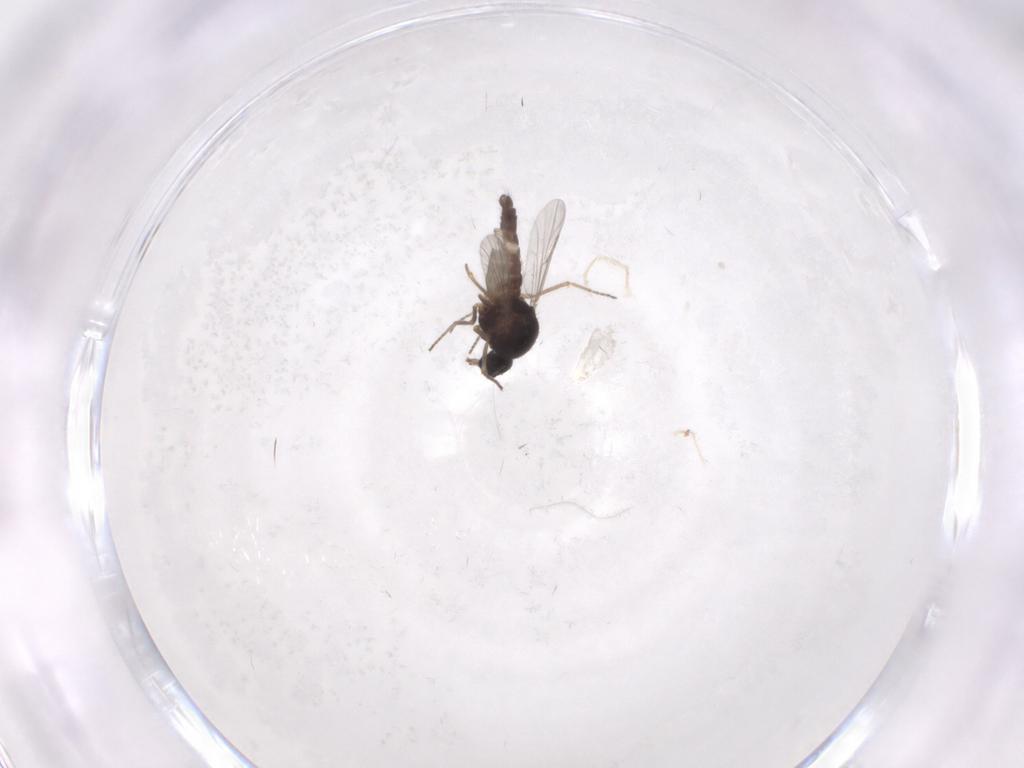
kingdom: Animalia
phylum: Arthropoda
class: Insecta
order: Diptera
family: Ceratopogonidae
